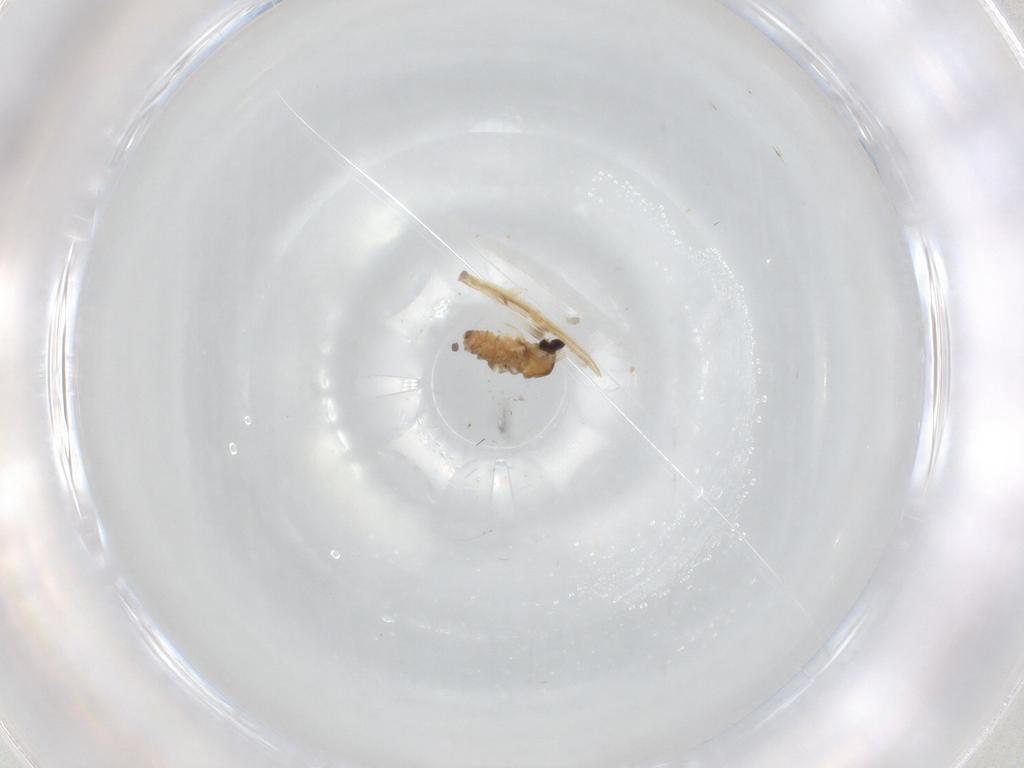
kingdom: Animalia
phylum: Arthropoda
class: Insecta
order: Diptera
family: Cecidomyiidae
